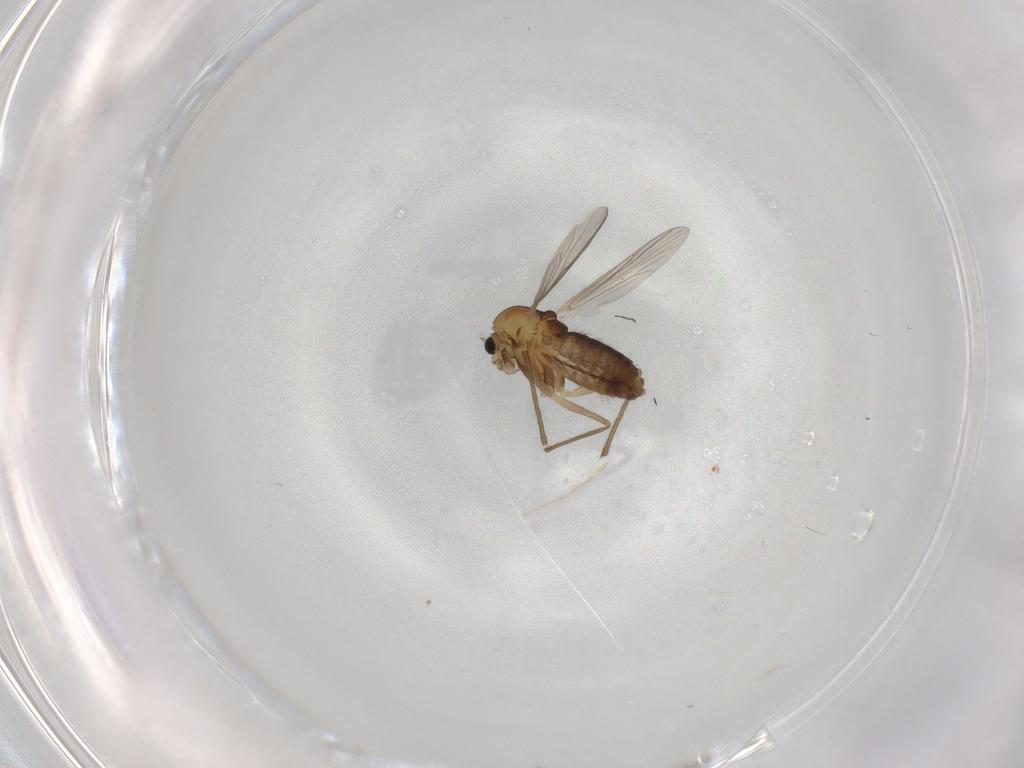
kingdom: Animalia
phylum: Arthropoda
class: Insecta
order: Diptera
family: Chironomidae
